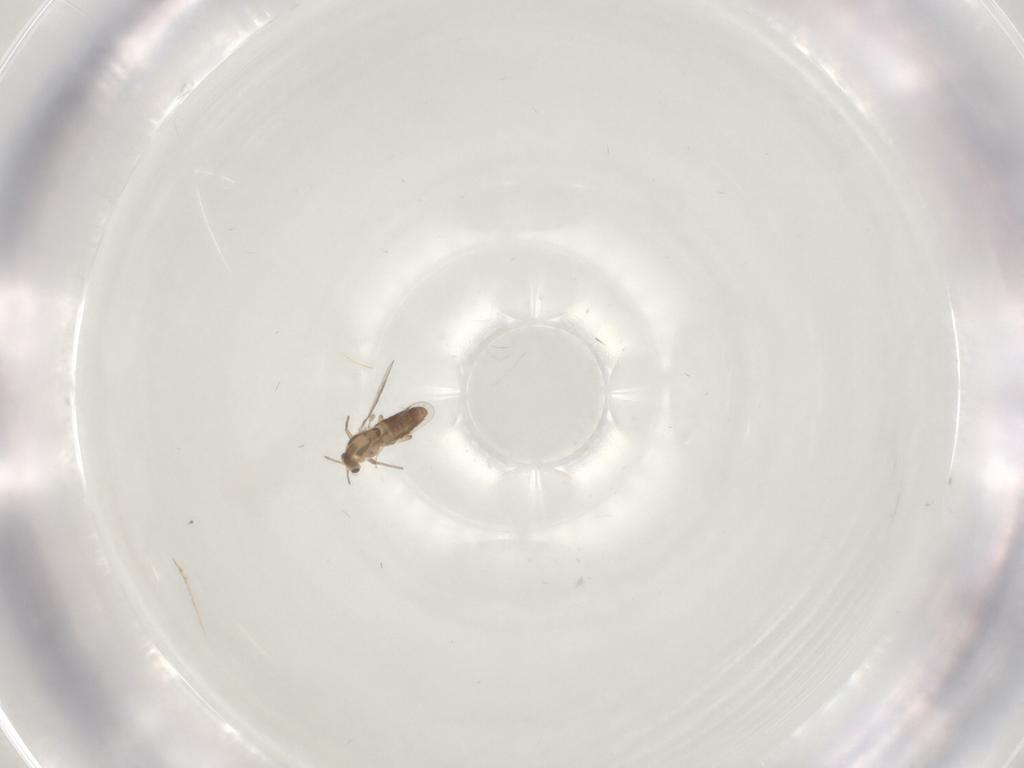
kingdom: Animalia
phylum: Arthropoda
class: Insecta
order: Diptera
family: Chironomidae
